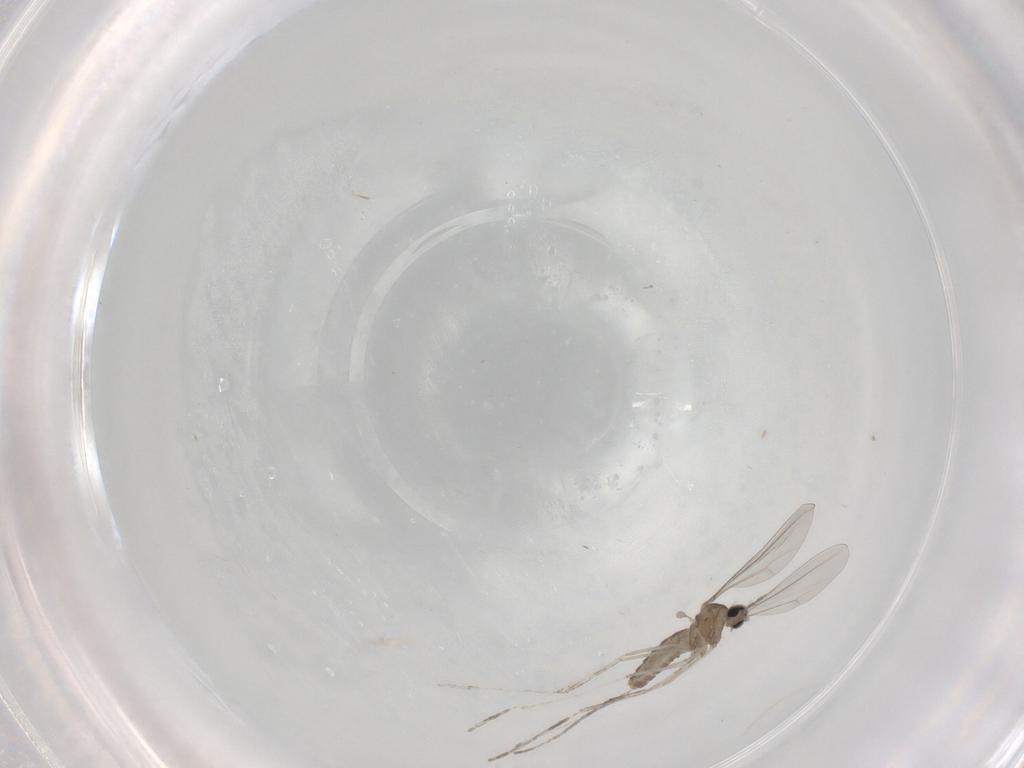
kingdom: Animalia
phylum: Arthropoda
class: Insecta
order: Diptera
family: Cecidomyiidae
